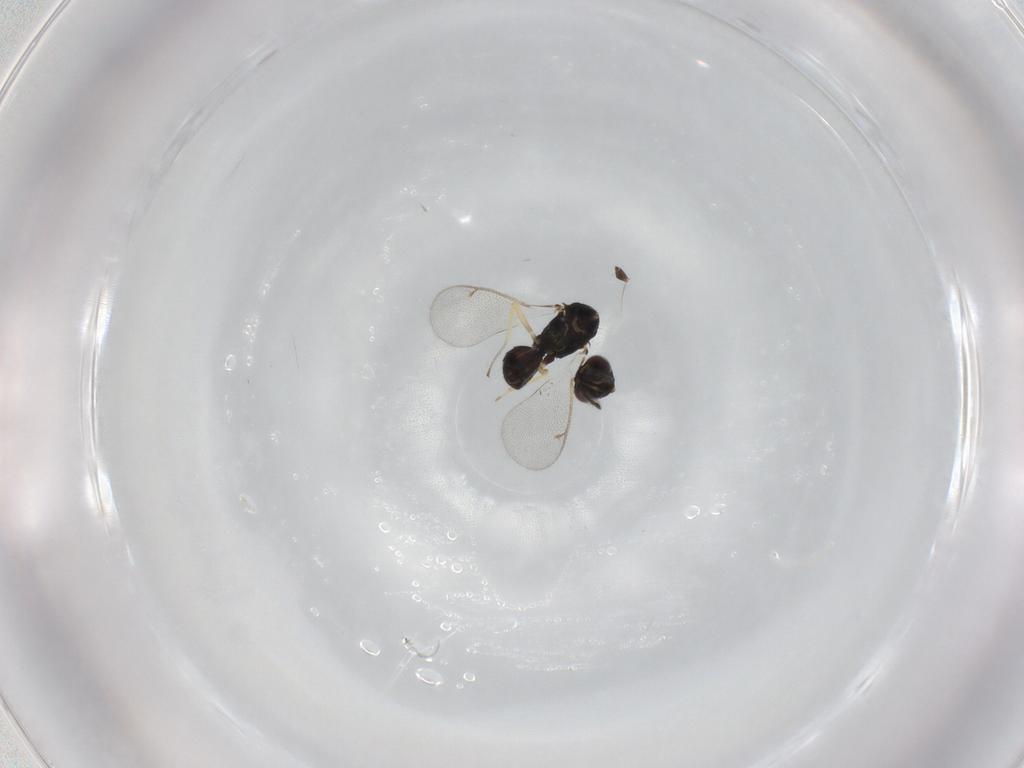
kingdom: Animalia
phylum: Arthropoda
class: Insecta
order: Hymenoptera
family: Eulophidae
